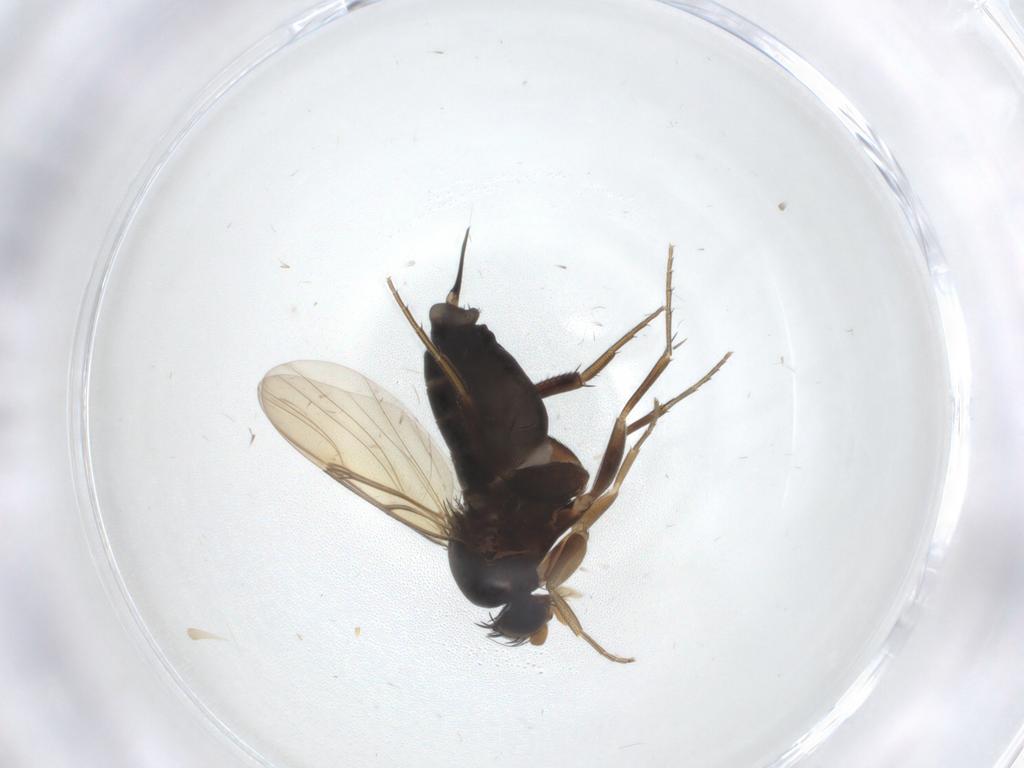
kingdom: Animalia
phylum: Arthropoda
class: Insecta
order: Diptera
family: Phoridae
